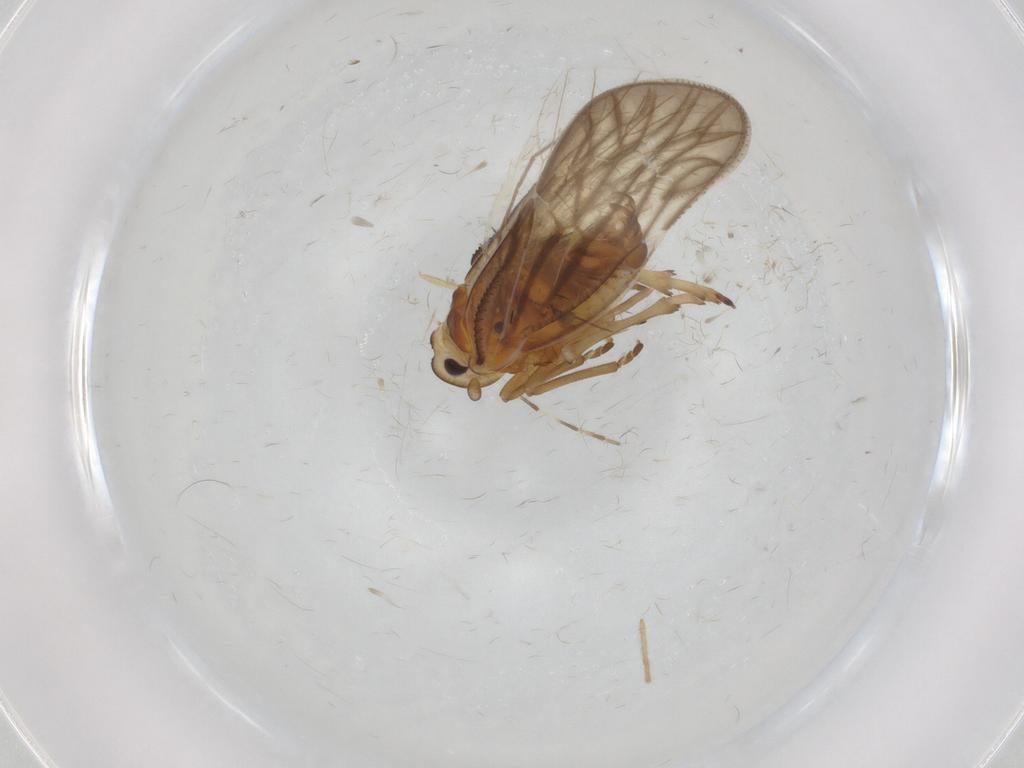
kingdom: Animalia
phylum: Arthropoda
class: Insecta
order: Hemiptera
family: Meenoplidae
